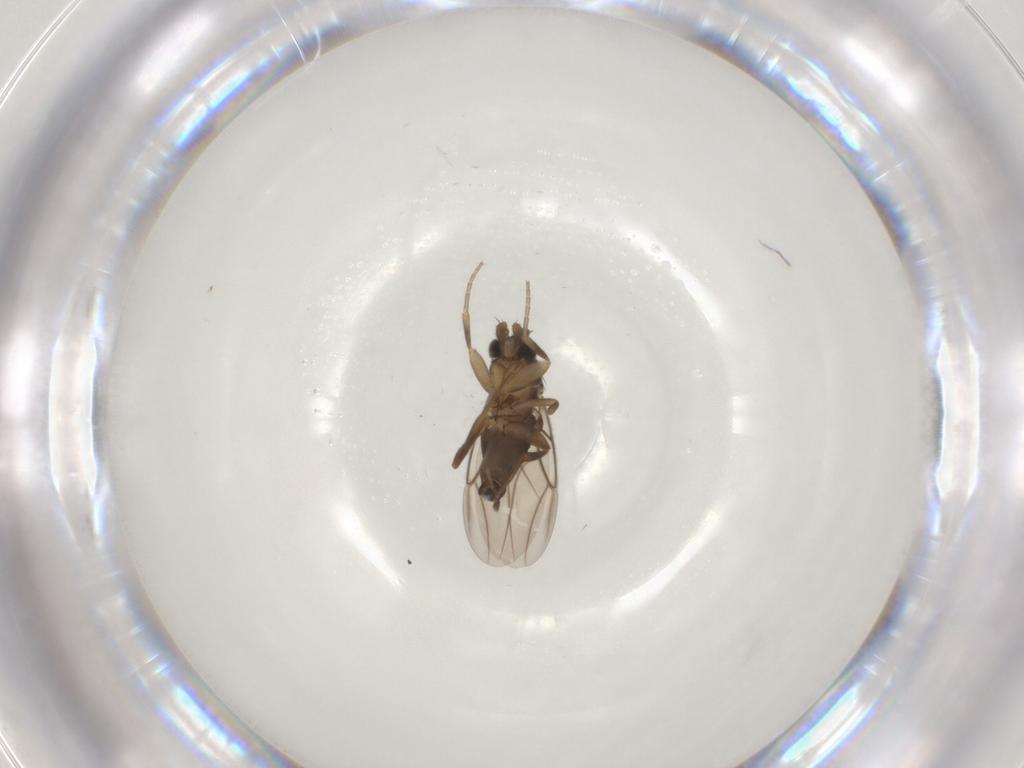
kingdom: Animalia
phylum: Arthropoda
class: Insecta
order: Diptera
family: Phoridae
